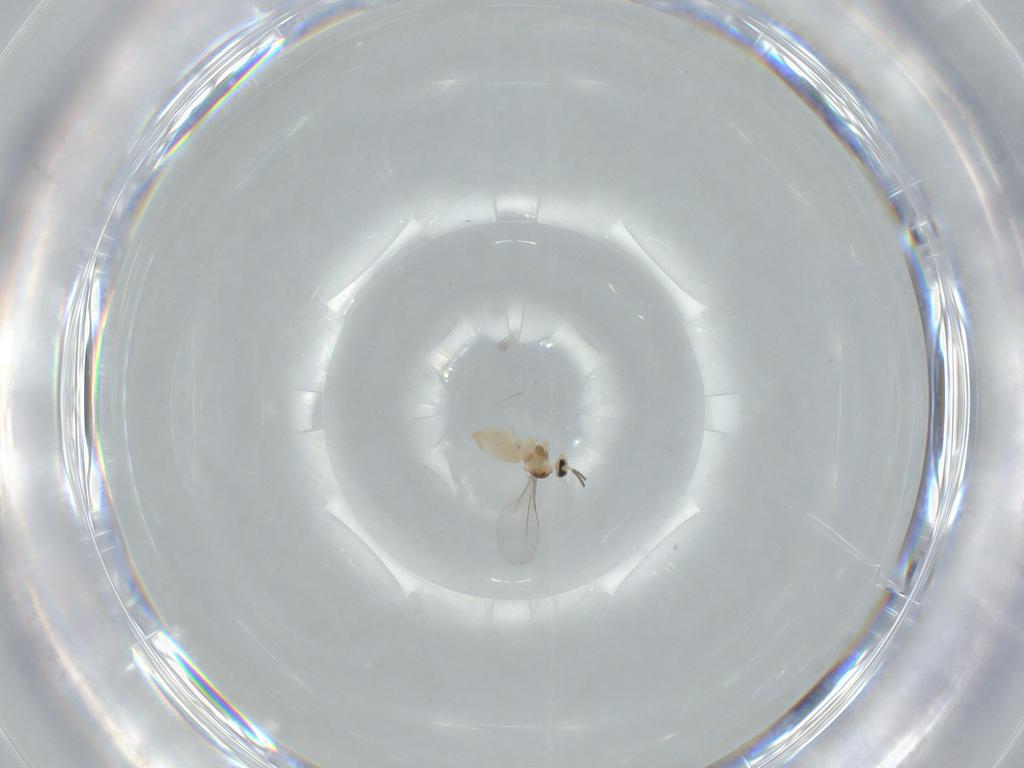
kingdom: Animalia
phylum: Arthropoda
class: Insecta
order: Diptera
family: Cecidomyiidae
